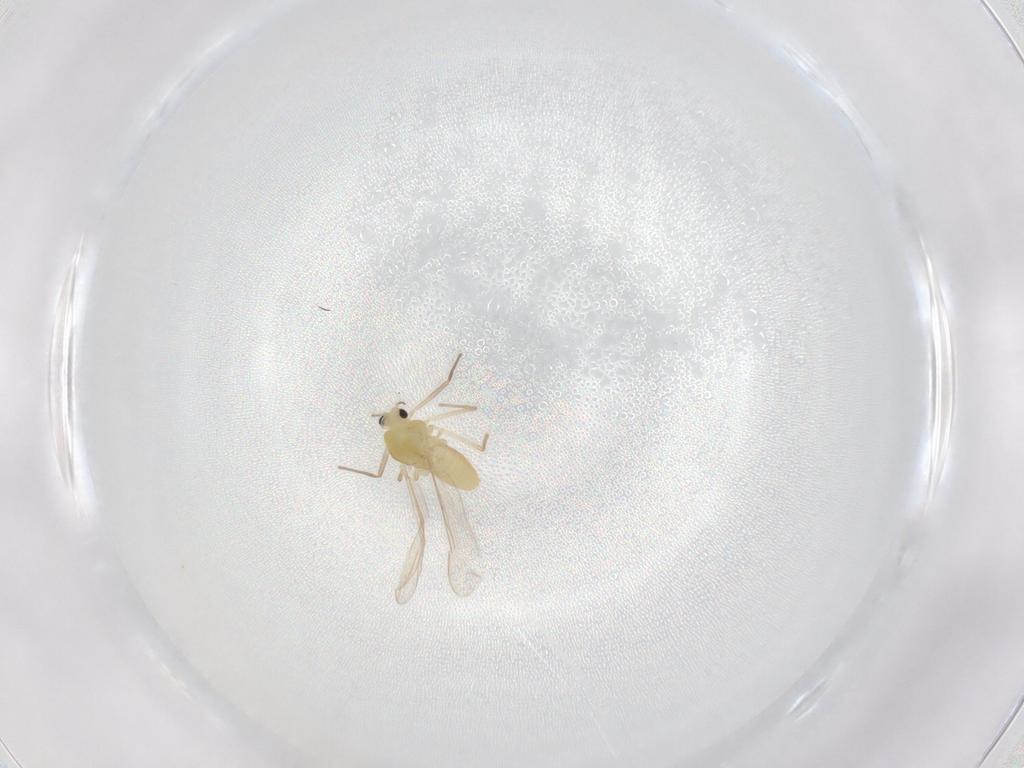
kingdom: Animalia
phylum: Arthropoda
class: Insecta
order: Diptera
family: Chironomidae
